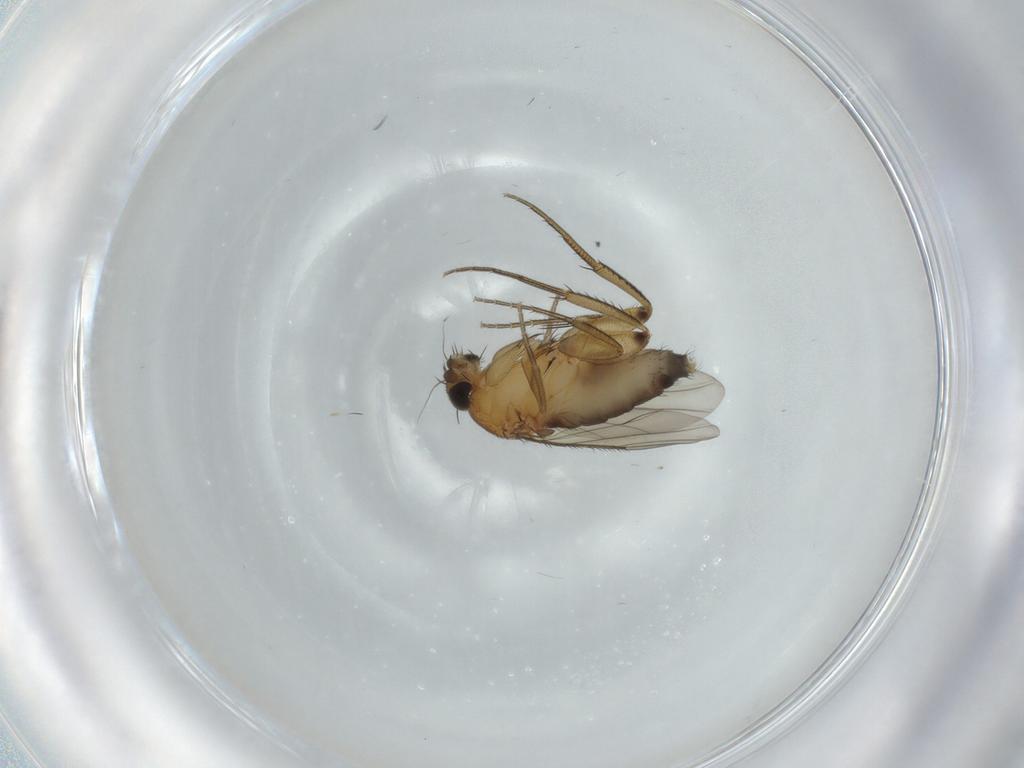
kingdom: Animalia
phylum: Arthropoda
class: Insecta
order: Diptera
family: Phoridae
